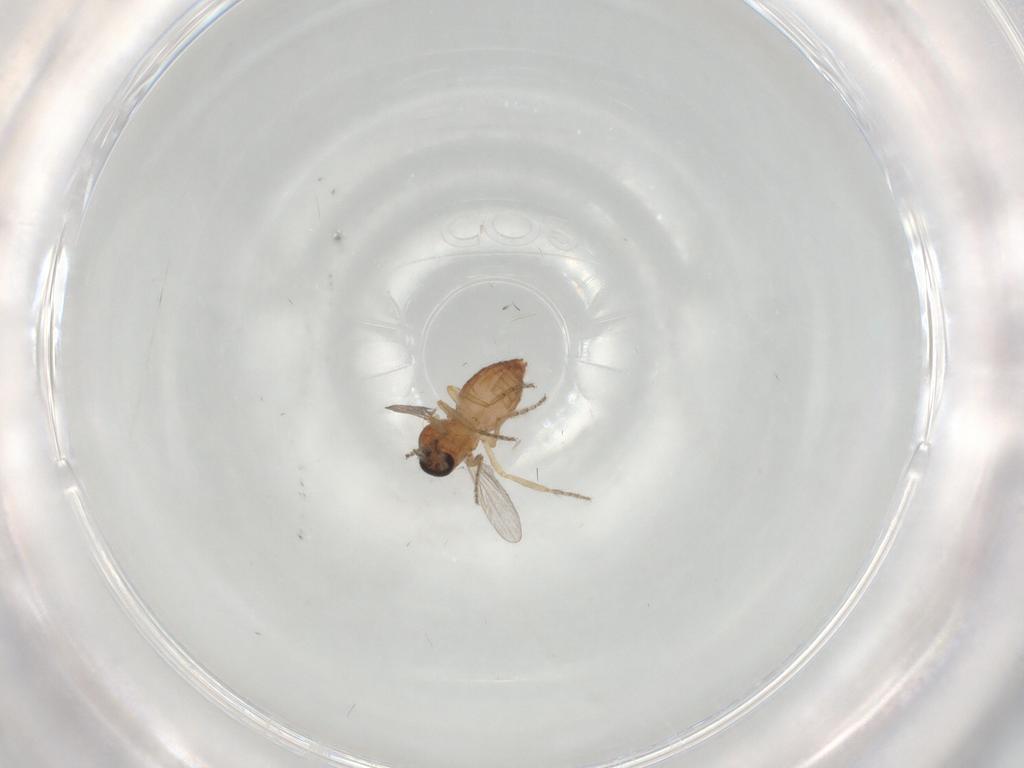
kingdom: Animalia
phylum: Arthropoda
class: Insecta
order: Diptera
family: Ceratopogonidae
